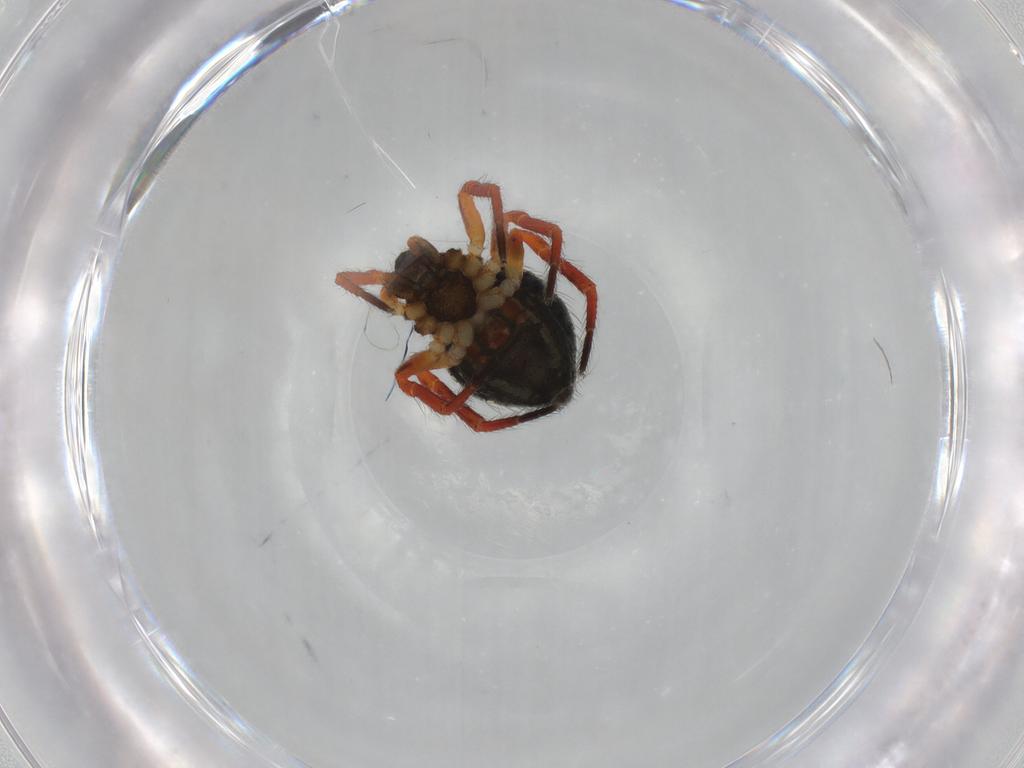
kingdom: Animalia
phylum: Arthropoda
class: Arachnida
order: Araneae
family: Theridiidae
